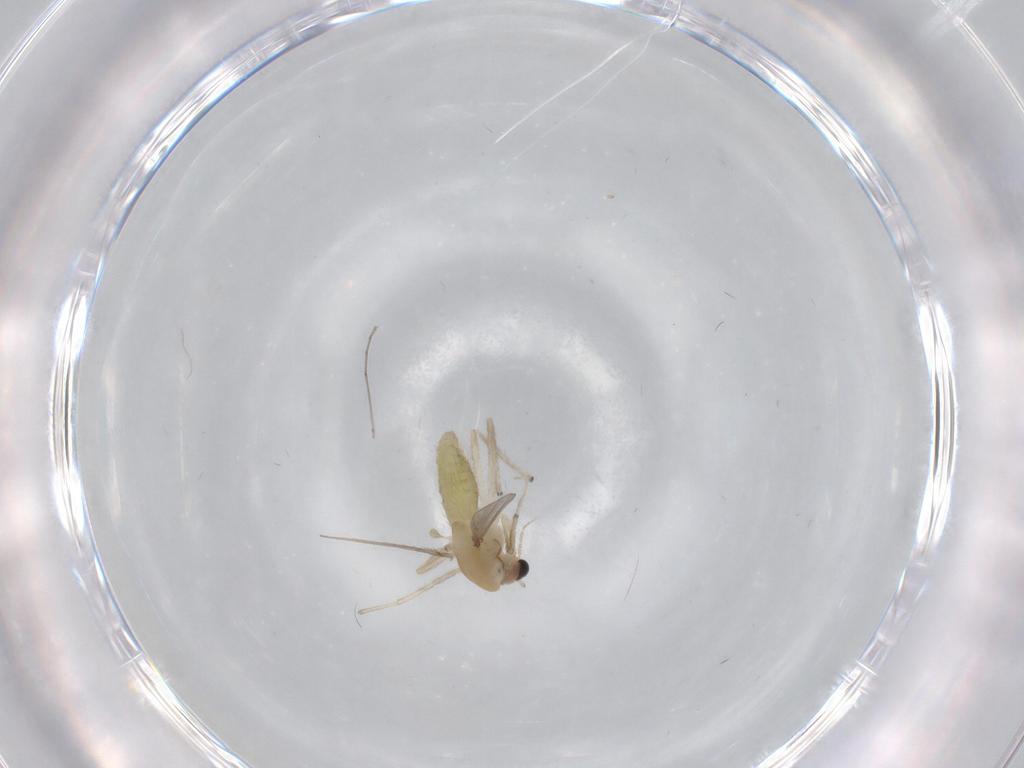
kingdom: Animalia
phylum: Arthropoda
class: Insecta
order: Diptera
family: Chironomidae
